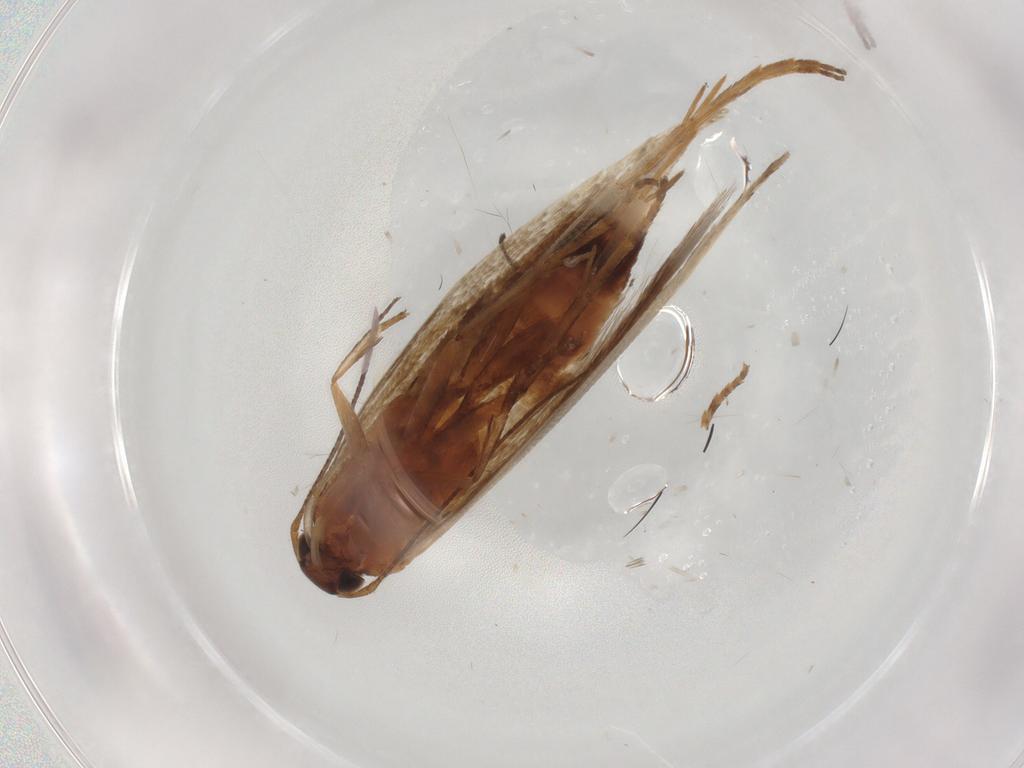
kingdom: Animalia
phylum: Arthropoda
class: Insecta
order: Lepidoptera
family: Gelechiidae
